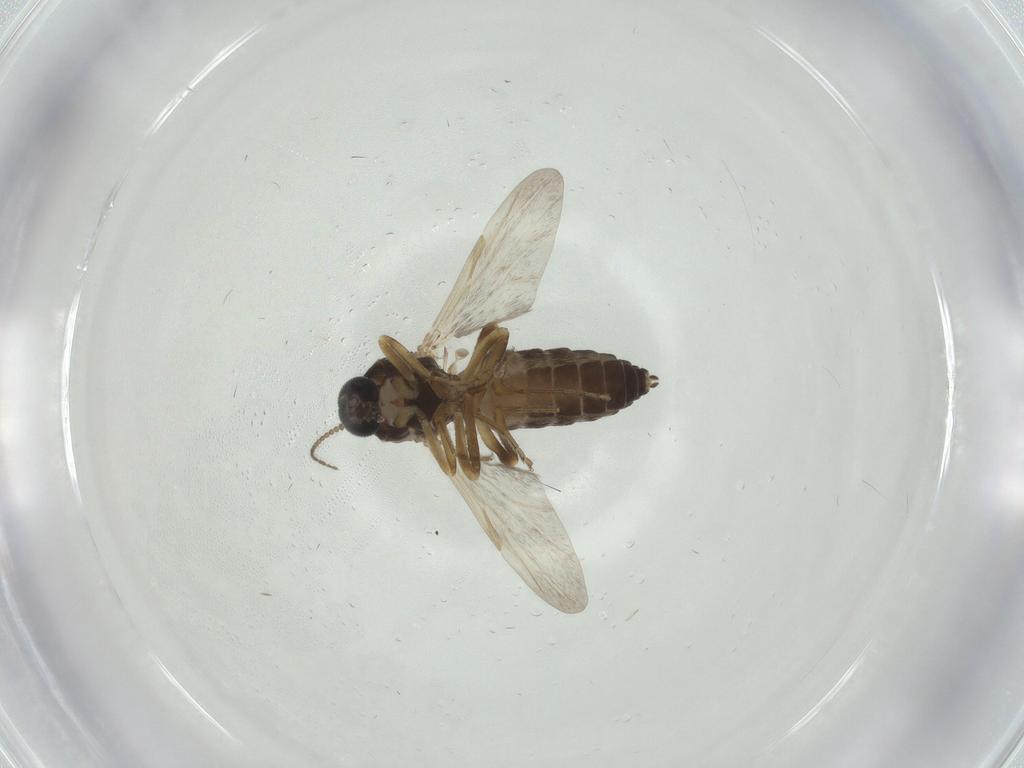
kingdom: Animalia
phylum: Arthropoda
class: Insecta
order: Diptera
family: Ceratopogonidae
